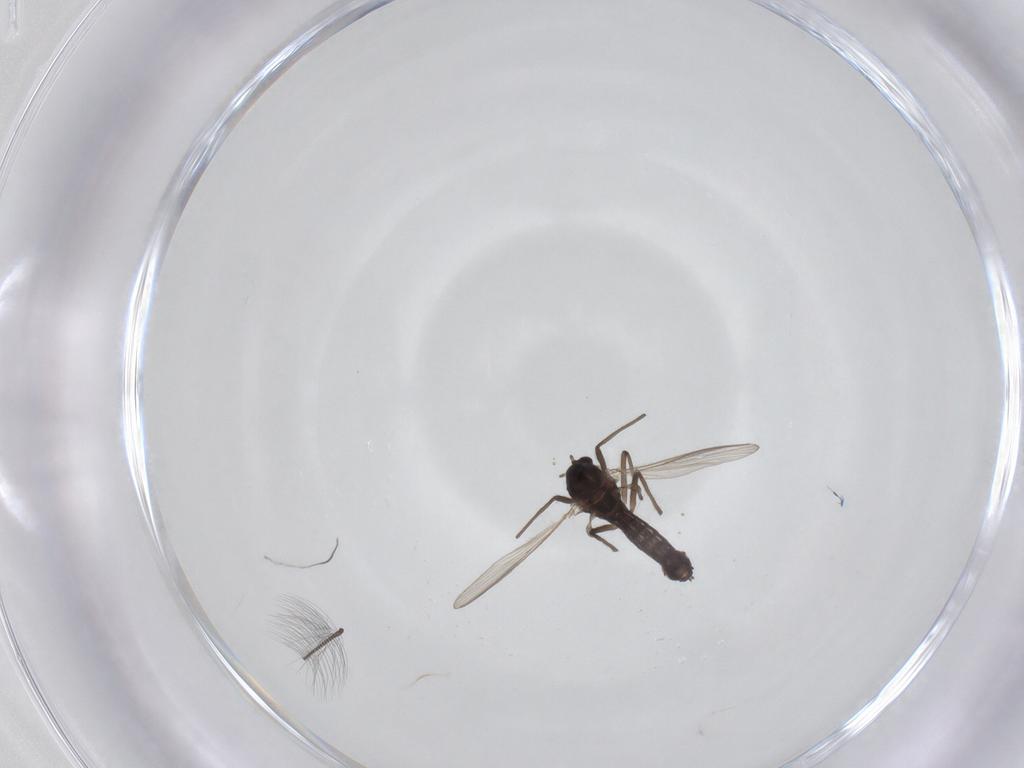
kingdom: Animalia
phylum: Arthropoda
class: Insecta
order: Diptera
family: Chironomidae
